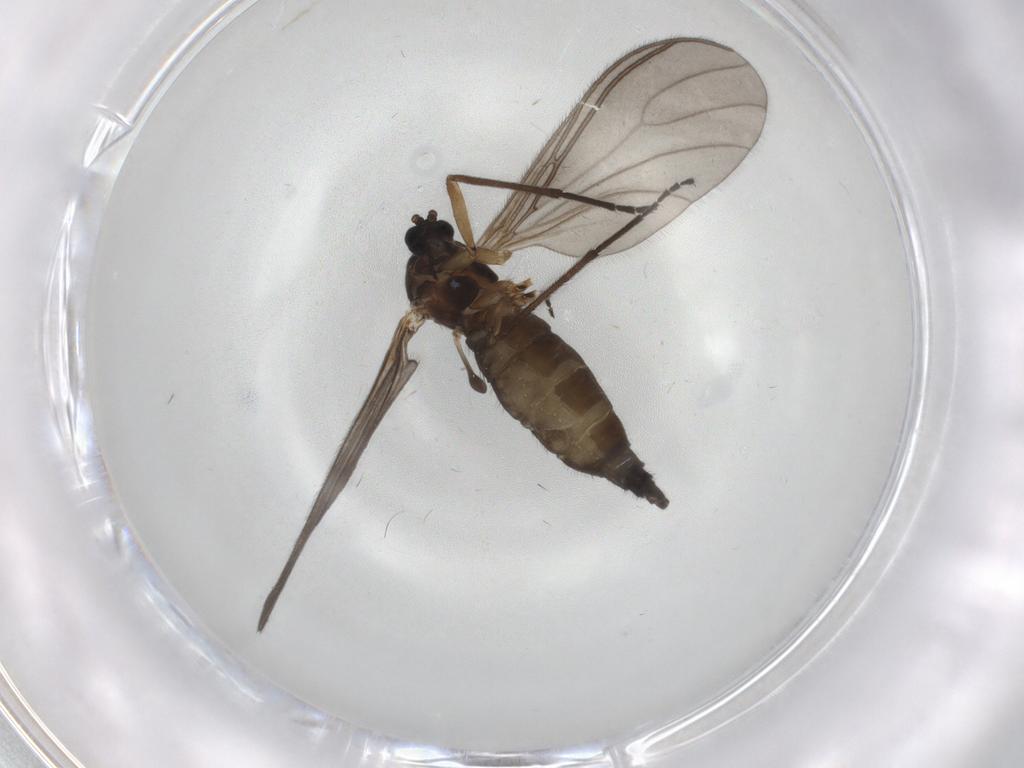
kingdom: Animalia
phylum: Arthropoda
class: Insecta
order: Diptera
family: Sciaridae
